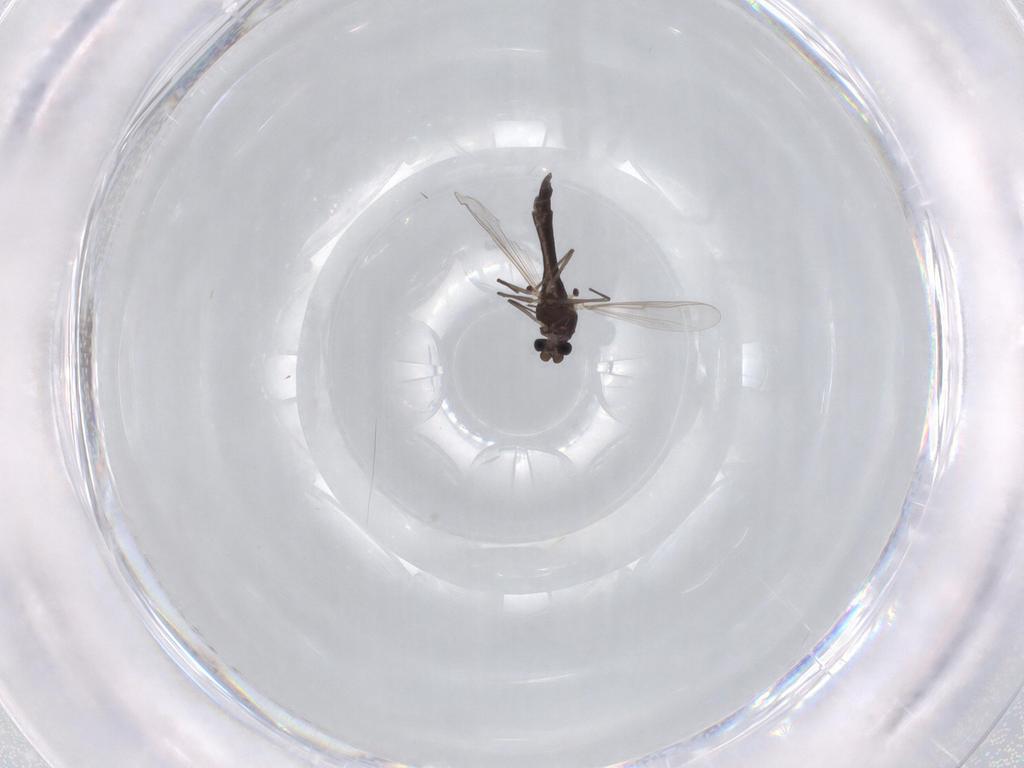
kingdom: Animalia
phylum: Arthropoda
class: Insecta
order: Diptera
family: Chironomidae
